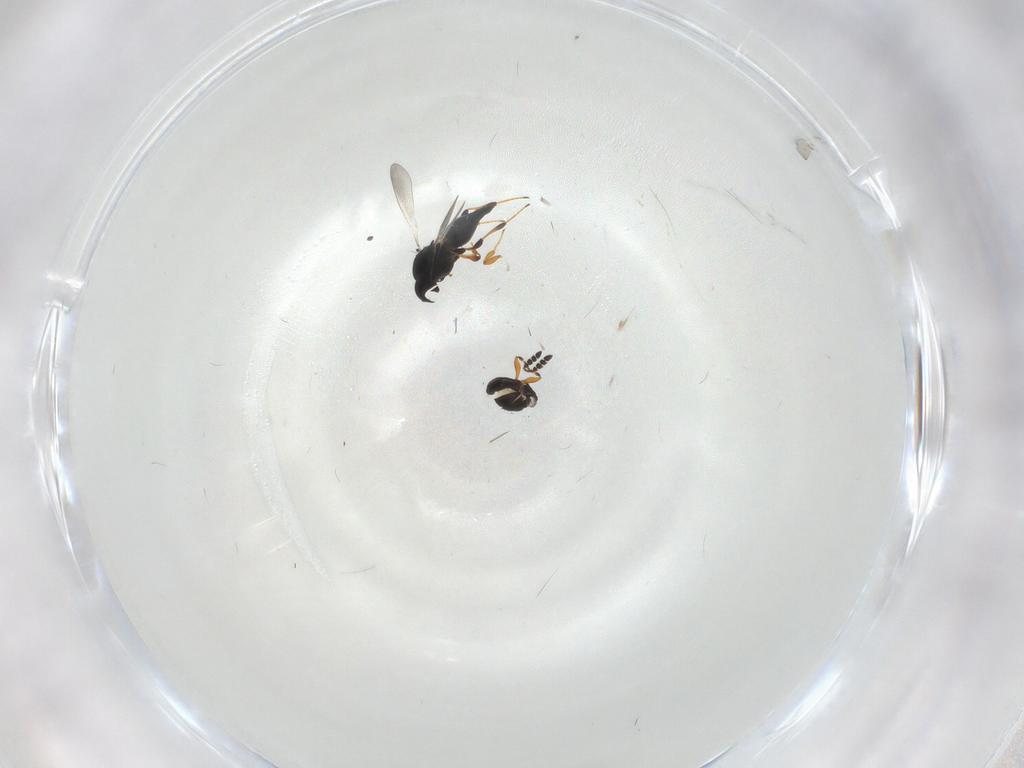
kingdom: Animalia
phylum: Arthropoda
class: Insecta
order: Hymenoptera
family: Platygastridae
